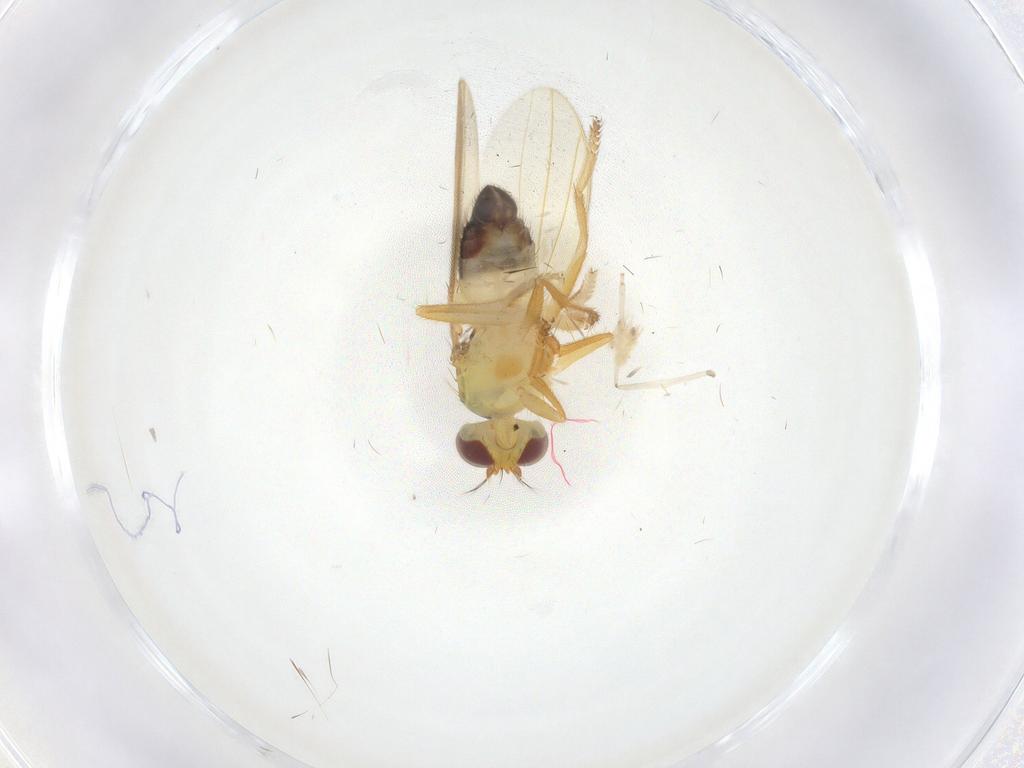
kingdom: Animalia
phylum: Arthropoda
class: Insecta
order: Diptera
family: Periscelididae
